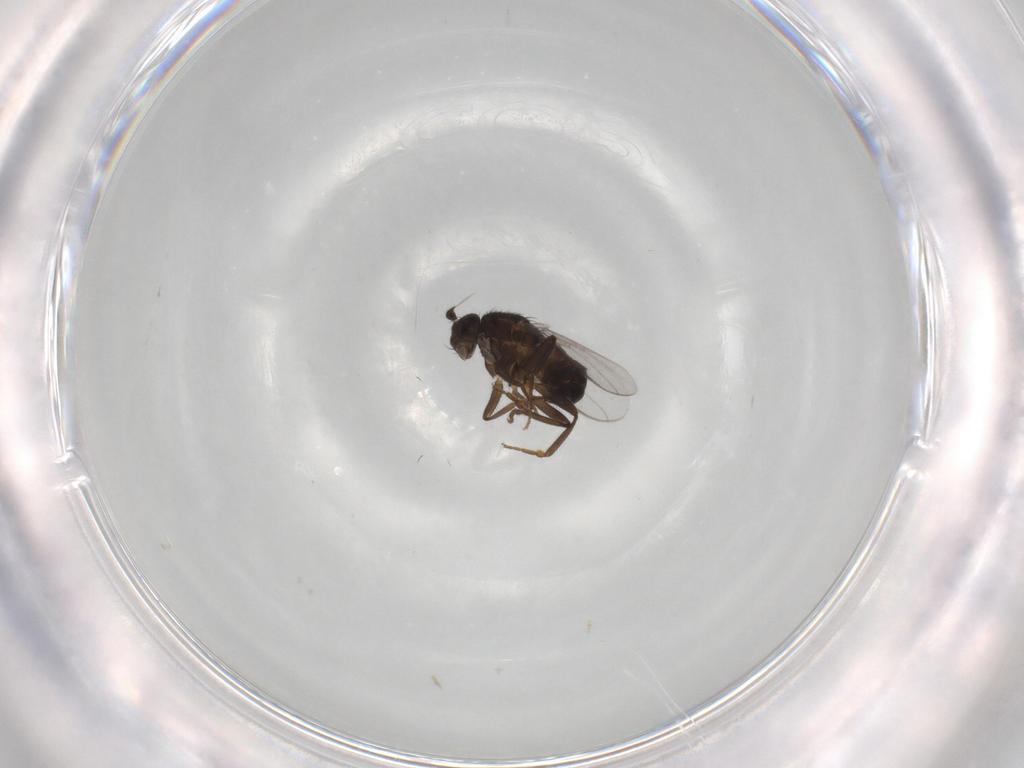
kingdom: Animalia
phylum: Arthropoda
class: Insecta
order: Diptera
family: Sphaeroceridae
